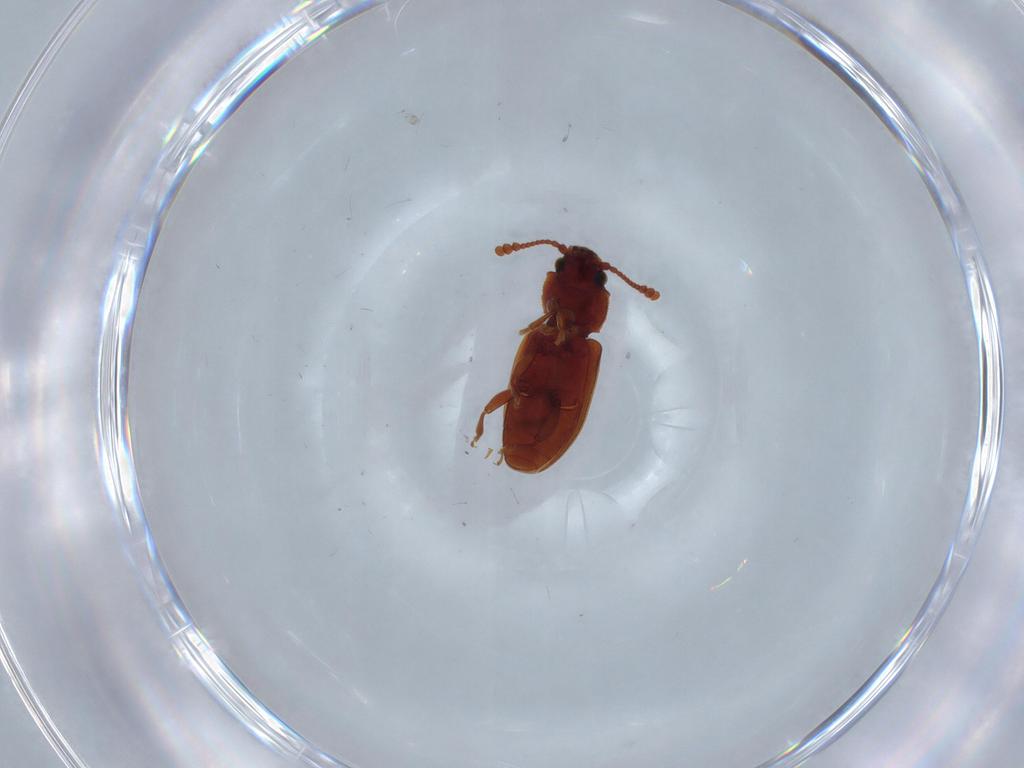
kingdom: Animalia
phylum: Arthropoda
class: Insecta
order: Coleoptera
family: Silvanidae
